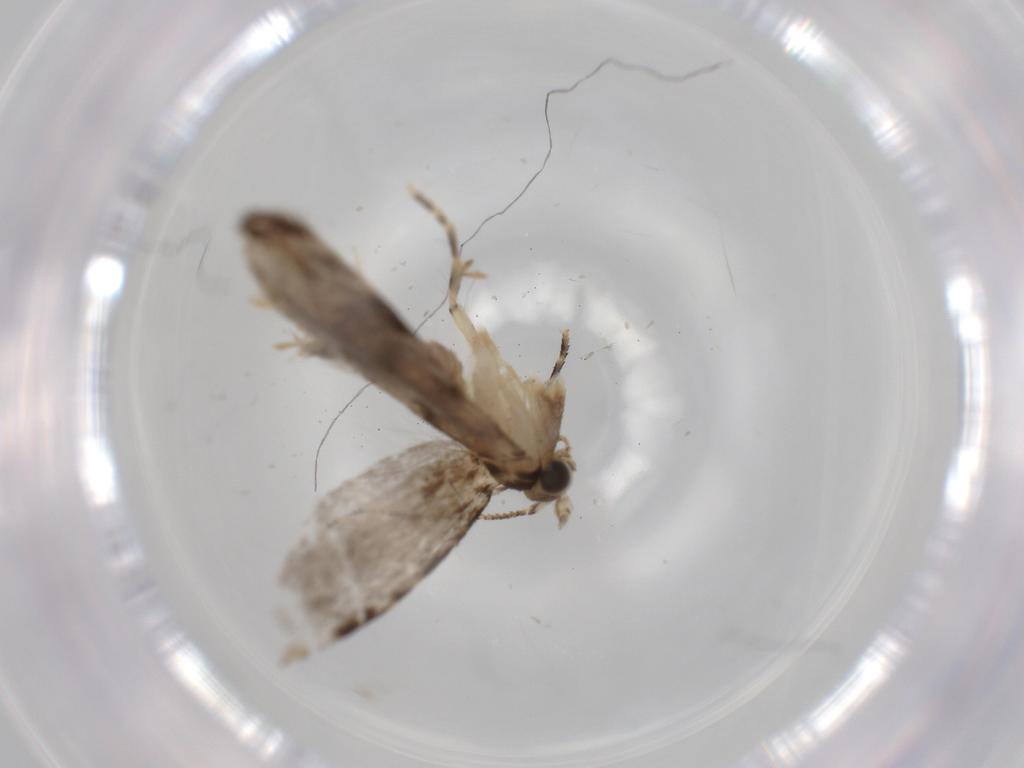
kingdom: Animalia
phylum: Arthropoda
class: Insecta
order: Lepidoptera
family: Tineidae
